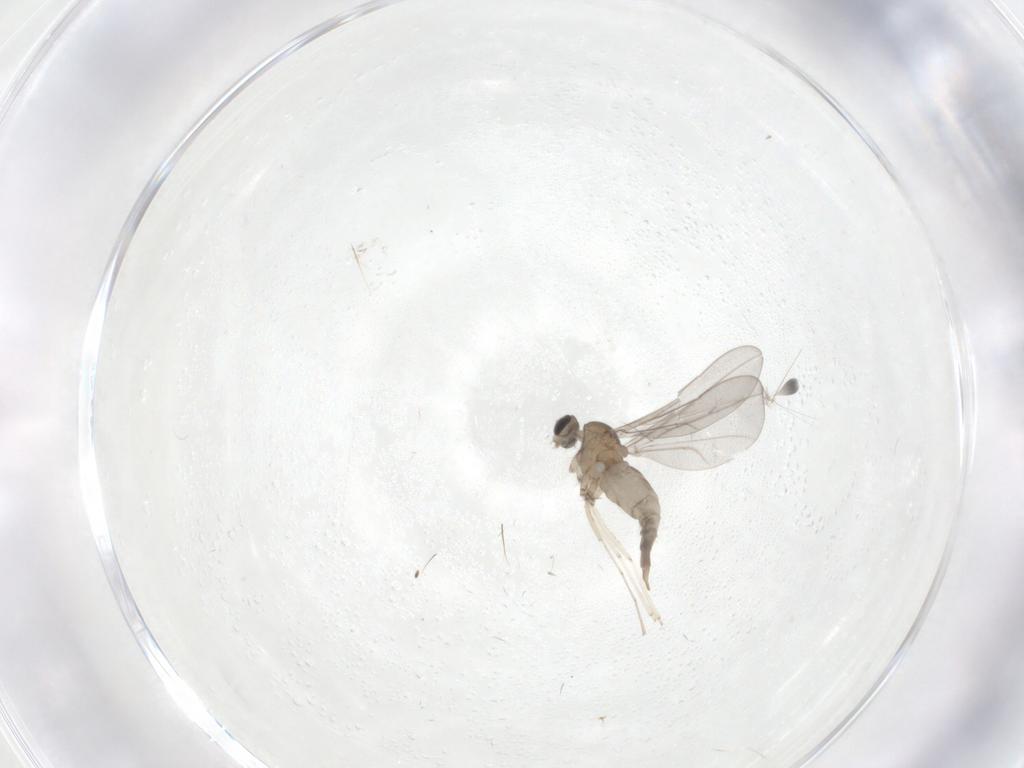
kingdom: Animalia
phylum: Arthropoda
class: Insecta
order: Diptera
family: Cecidomyiidae
